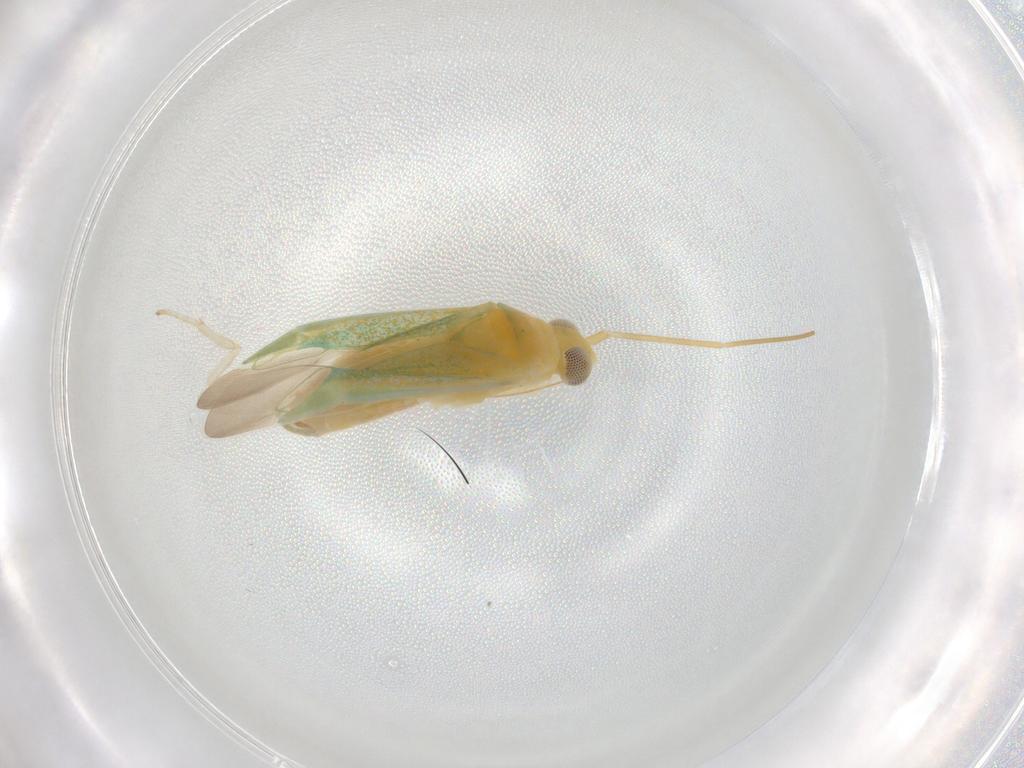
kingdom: Animalia
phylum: Arthropoda
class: Insecta
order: Hemiptera
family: Miridae
